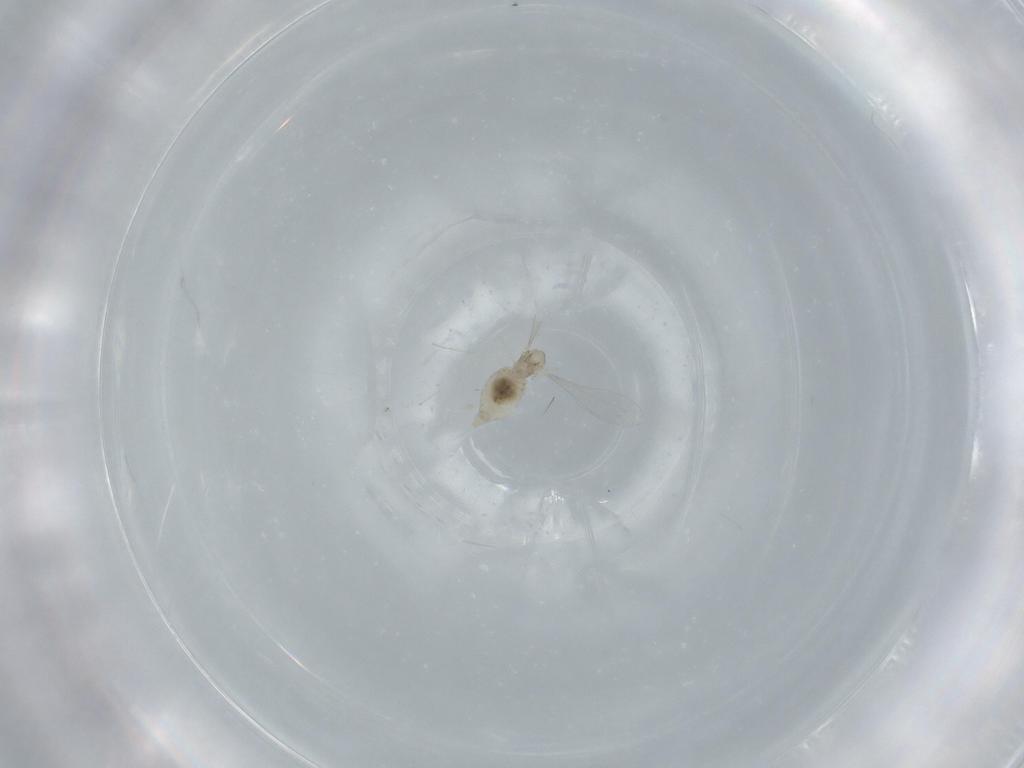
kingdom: Animalia
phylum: Arthropoda
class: Insecta
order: Diptera
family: Cecidomyiidae
